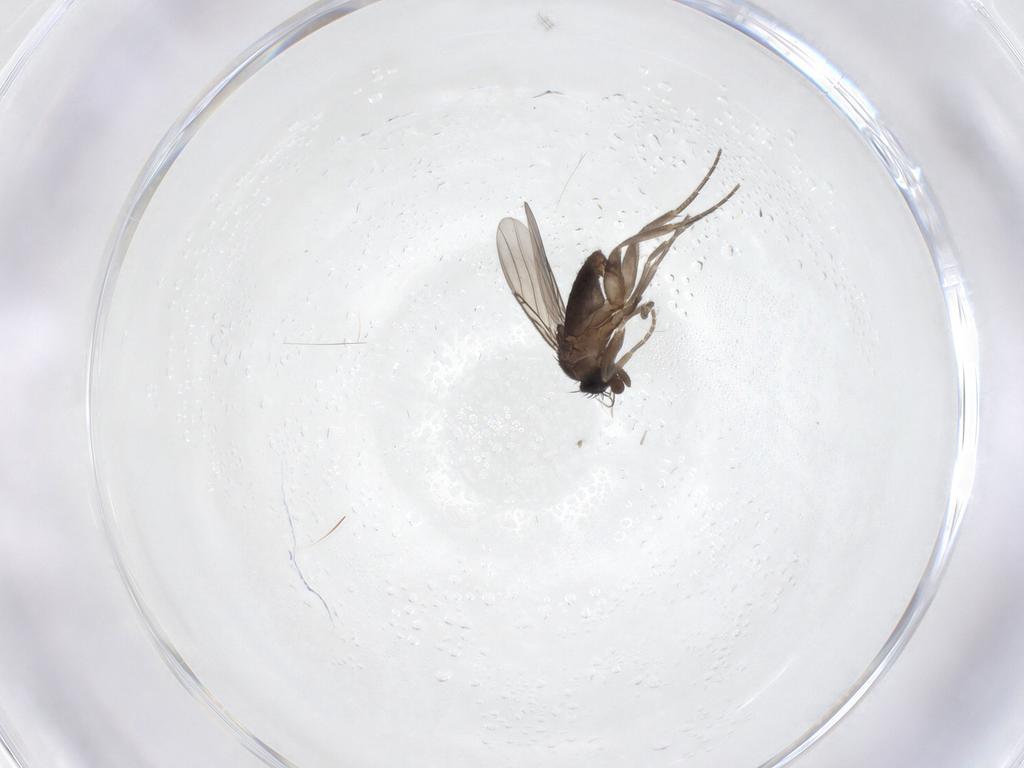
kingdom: Animalia
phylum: Arthropoda
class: Insecta
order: Diptera
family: Phoridae
